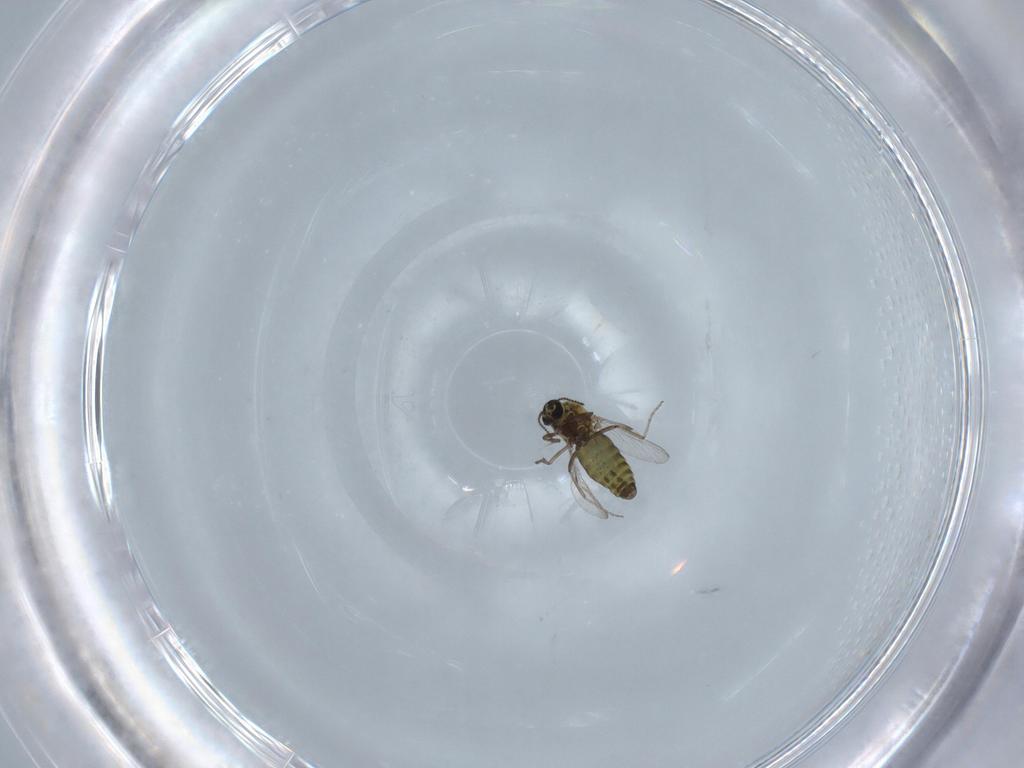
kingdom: Animalia
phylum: Arthropoda
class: Insecta
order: Diptera
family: Ceratopogonidae
